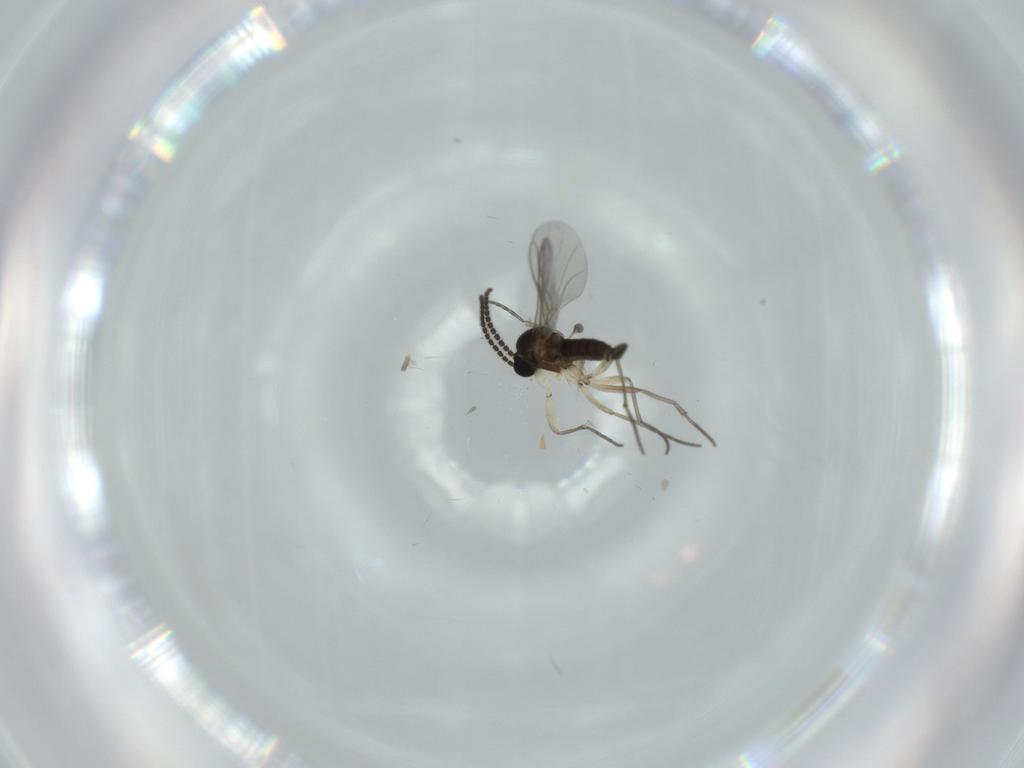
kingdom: Animalia
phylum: Arthropoda
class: Insecta
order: Diptera
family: Sciaridae
